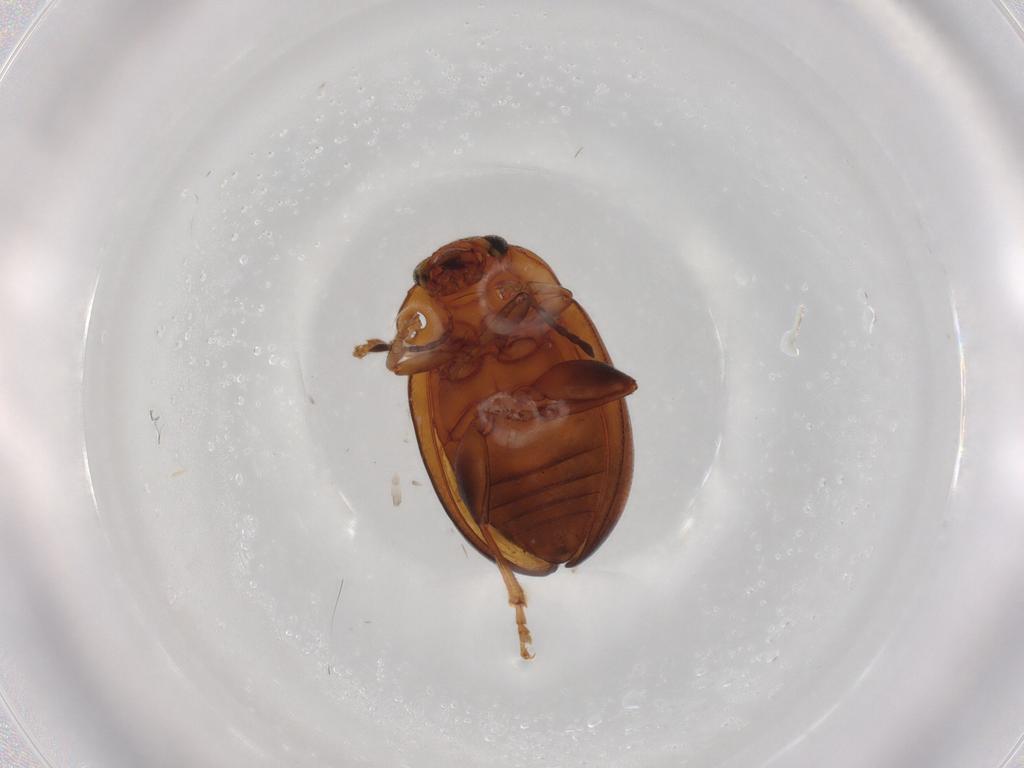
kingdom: Animalia
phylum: Arthropoda
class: Insecta
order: Coleoptera
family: Chrysomelidae
